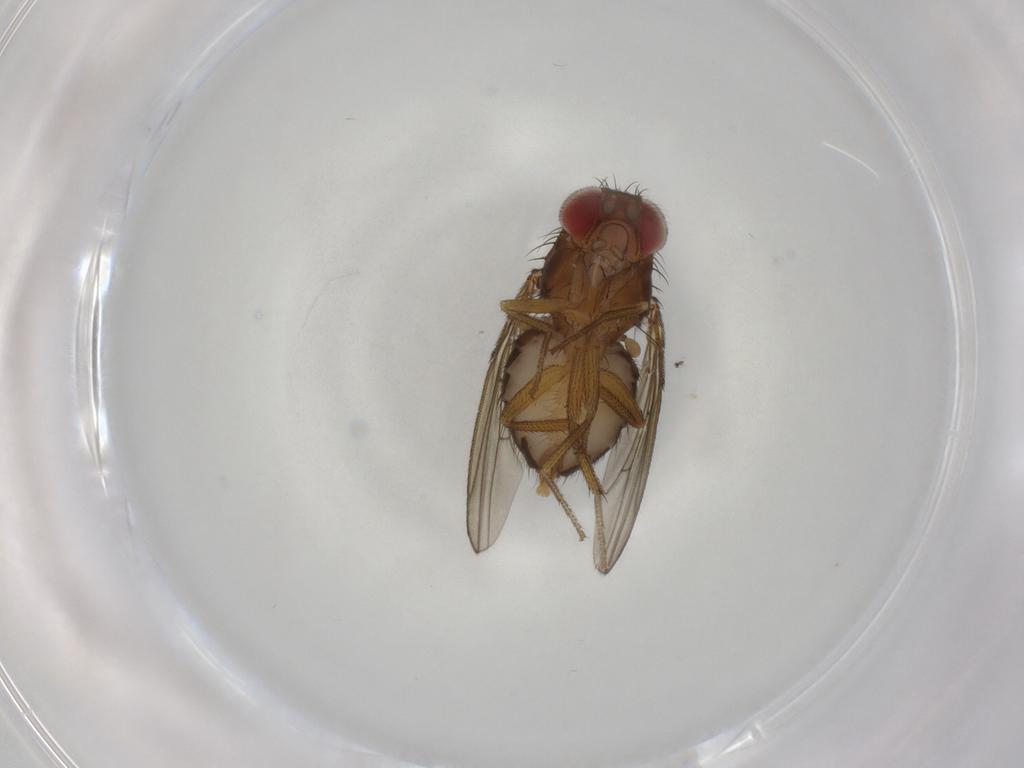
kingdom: Animalia
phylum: Arthropoda
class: Insecta
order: Diptera
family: Drosophilidae
